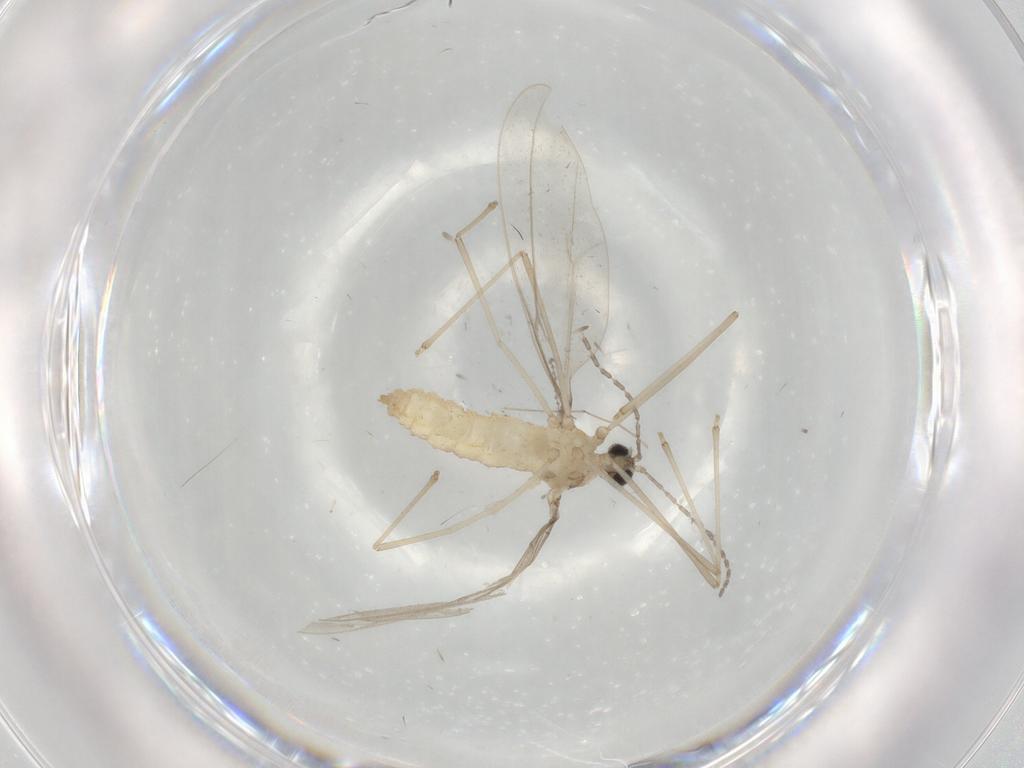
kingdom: Animalia
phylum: Arthropoda
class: Insecta
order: Diptera
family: Cecidomyiidae
